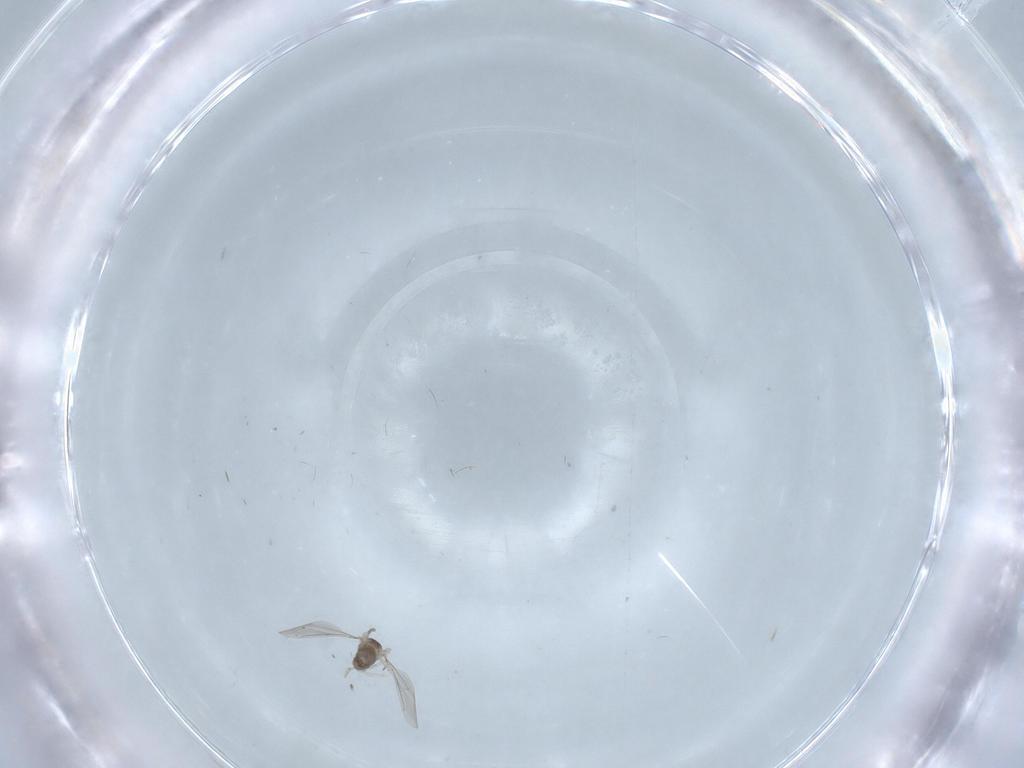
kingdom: Animalia
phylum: Arthropoda
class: Insecta
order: Diptera
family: Cecidomyiidae
